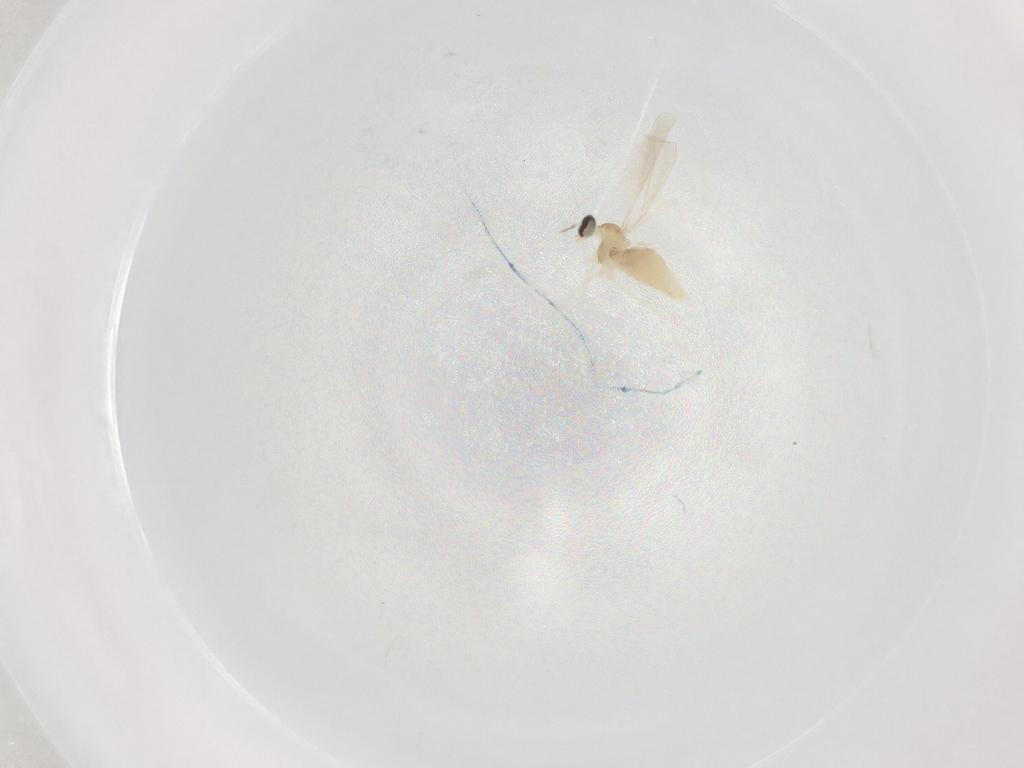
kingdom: Animalia
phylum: Arthropoda
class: Insecta
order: Diptera
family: Cecidomyiidae
